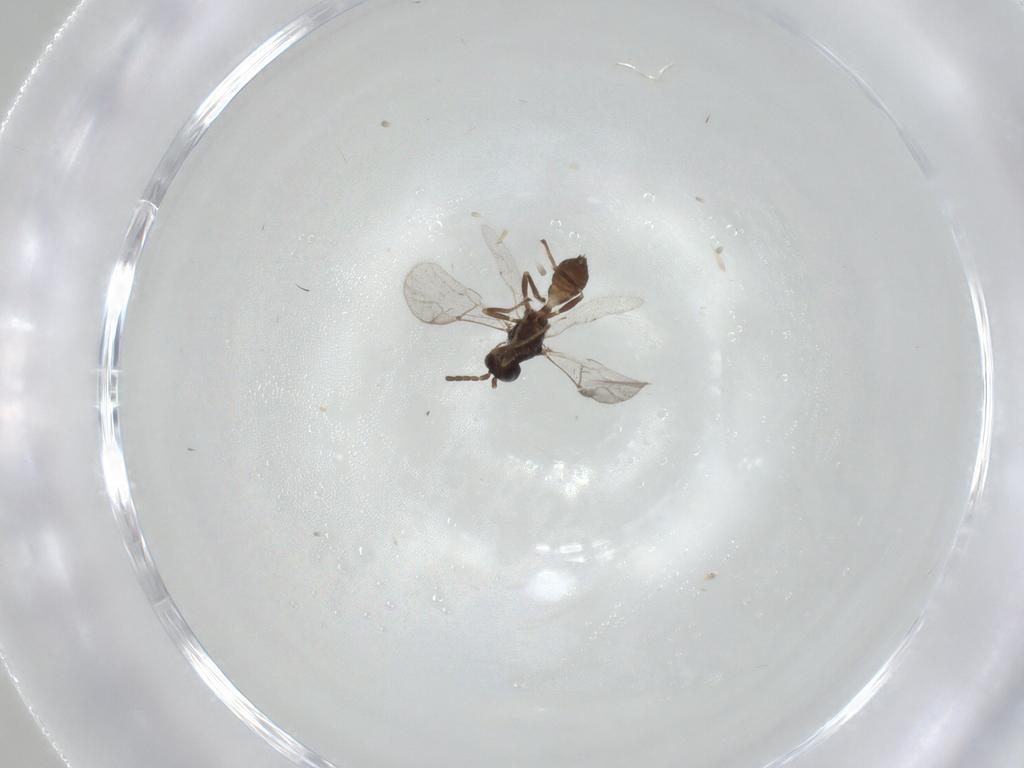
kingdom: Animalia
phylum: Arthropoda
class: Insecta
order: Hymenoptera
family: Braconidae
